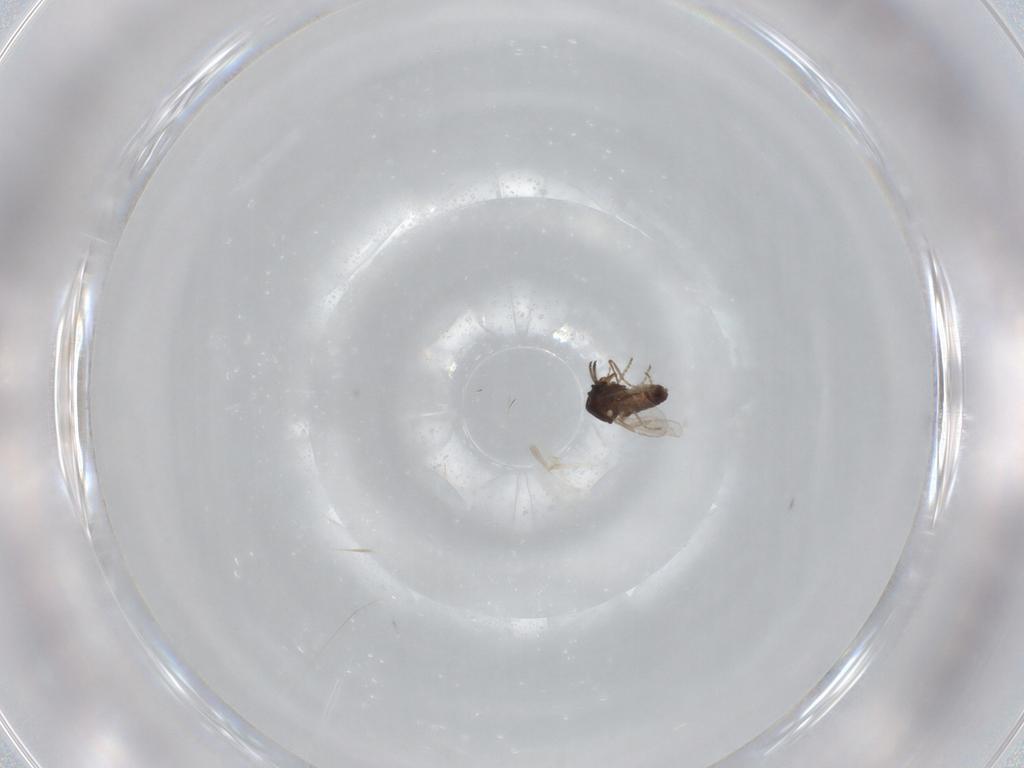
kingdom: Animalia
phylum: Arthropoda
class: Insecta
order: Diptera
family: Ceratopogonidae
